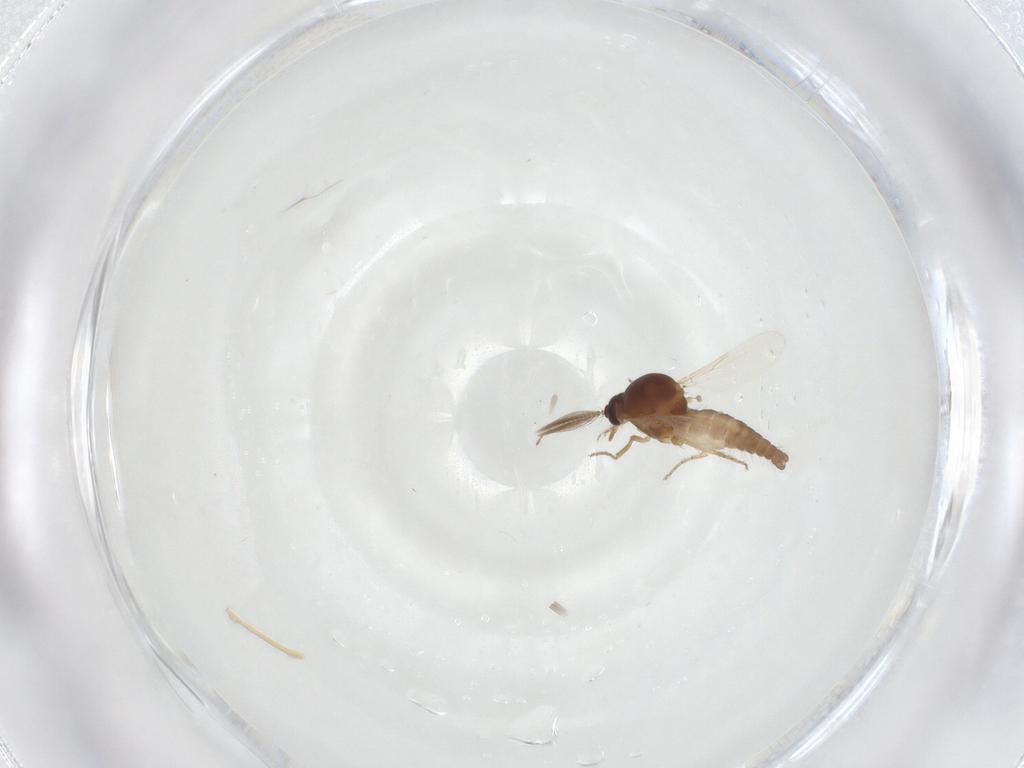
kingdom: Animalia
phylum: Arthropoda
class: Insecta
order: Diptera
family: Ceratopogonidae
